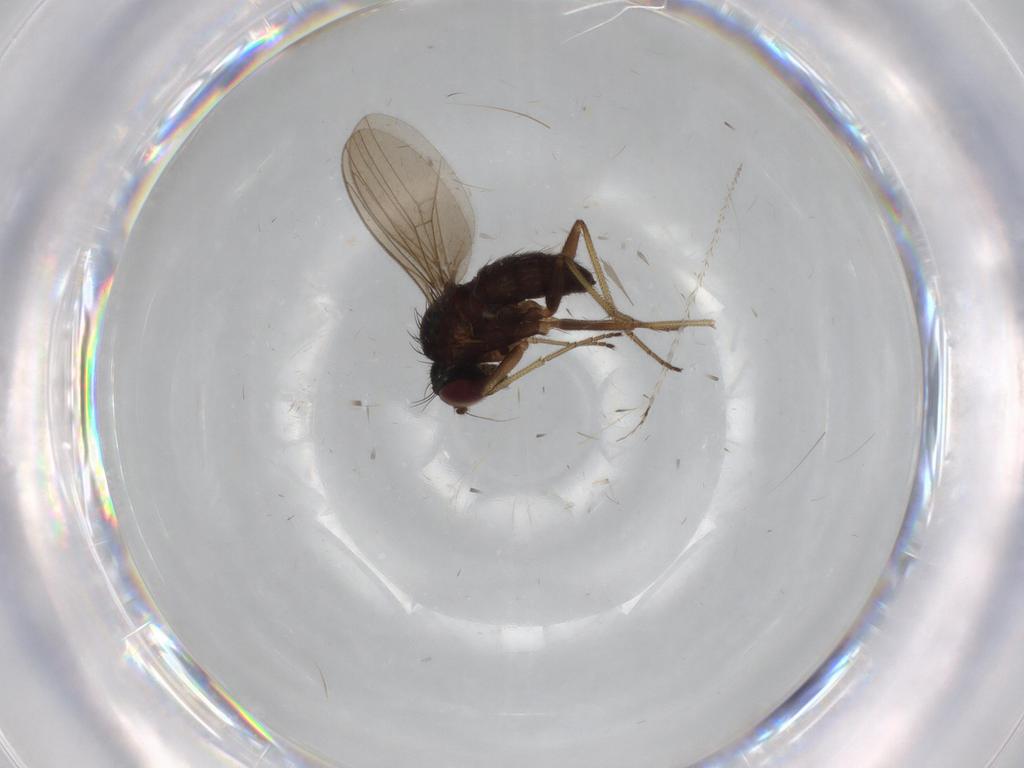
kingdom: Animalia
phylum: Arthropoda
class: Insecta
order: Diptera
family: Dolichopodidae
